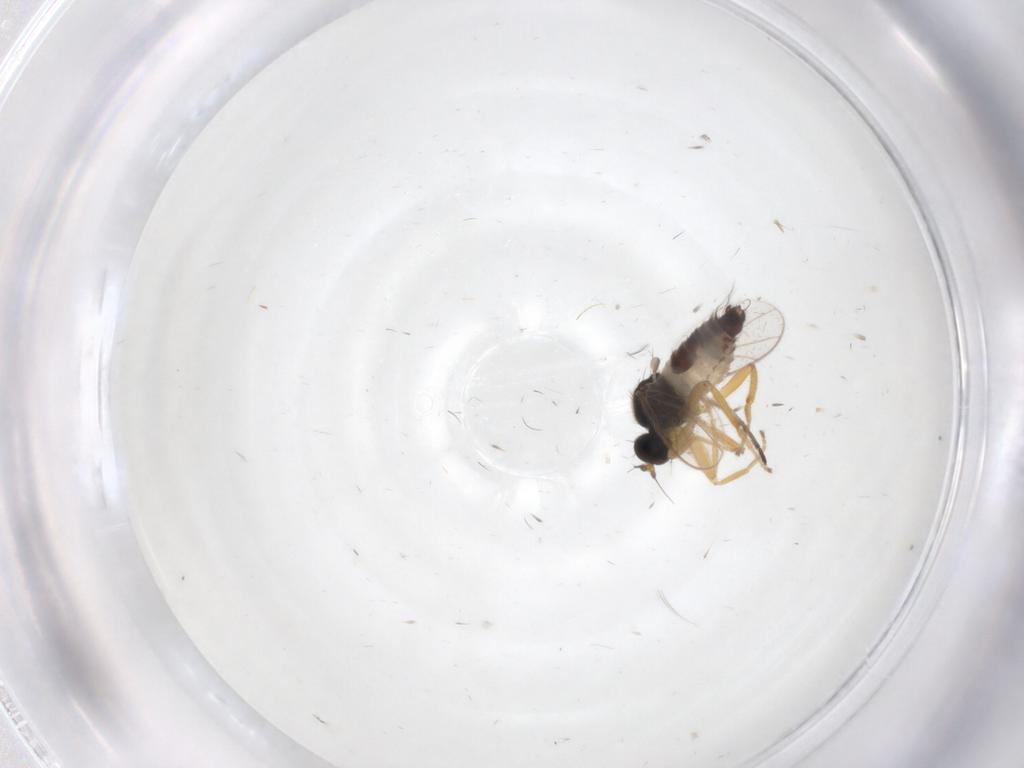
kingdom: Animalia
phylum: Arthropoda
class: Insecta
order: Diptera
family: Hybotidae
